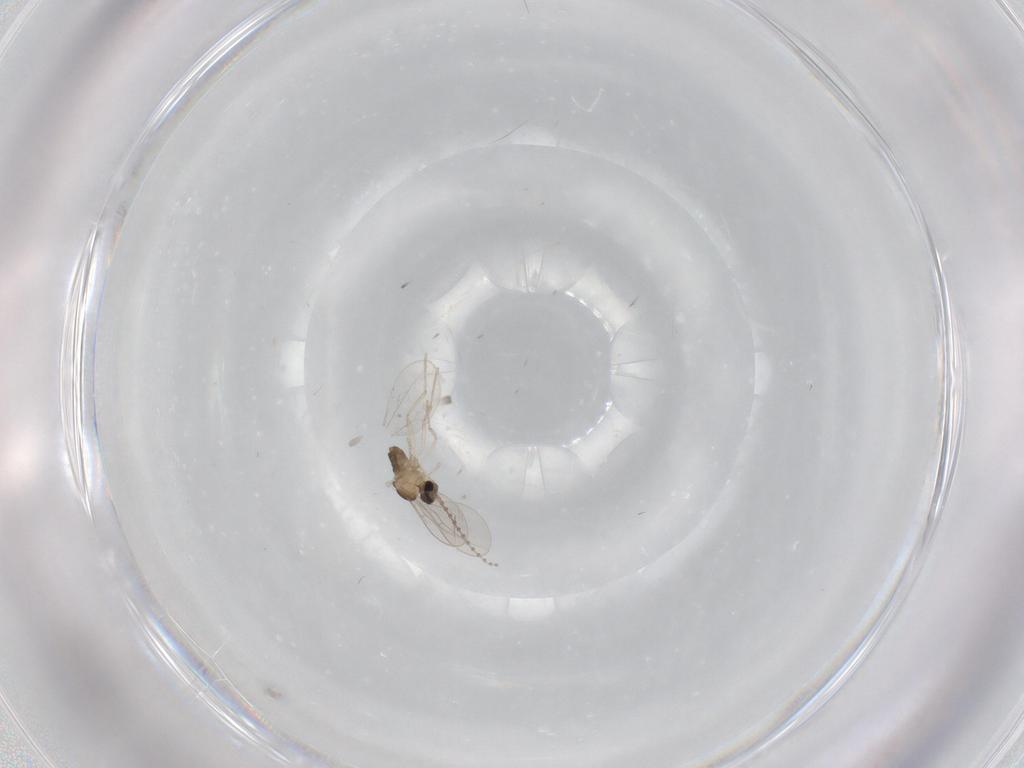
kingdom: Animalia
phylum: Arthropoda
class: Insecta
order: Diptera
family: Cecidomyiidae
